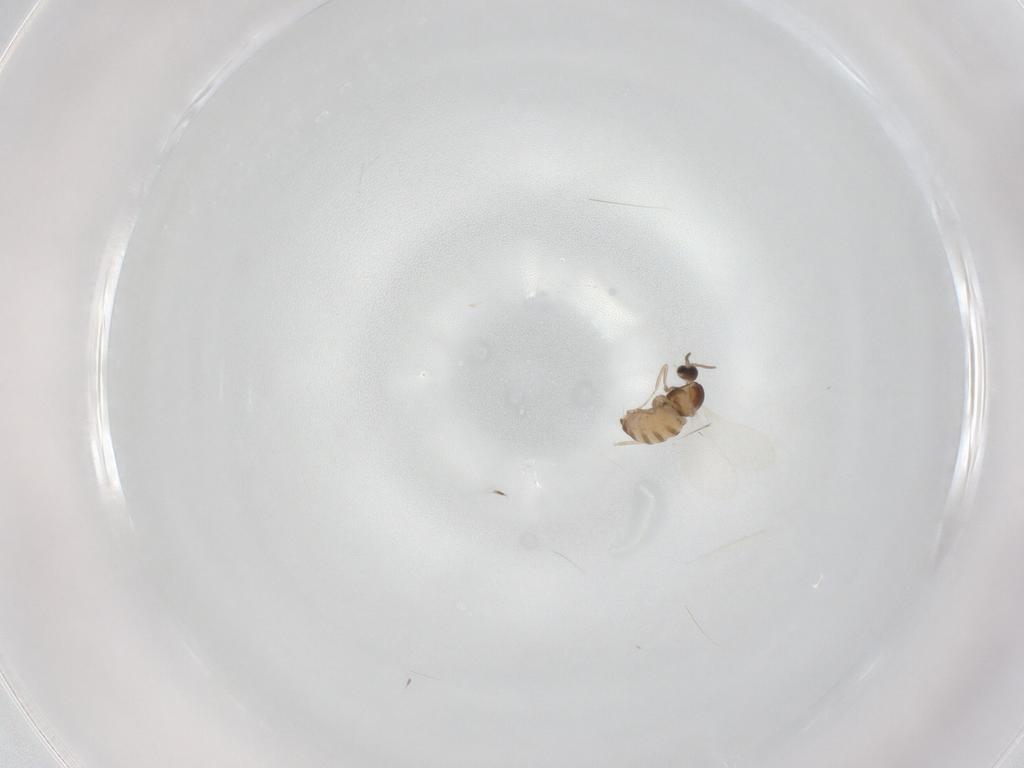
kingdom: Animalia
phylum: Arthropoda
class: Insecta
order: Diptera
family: Cecidomyiidae
